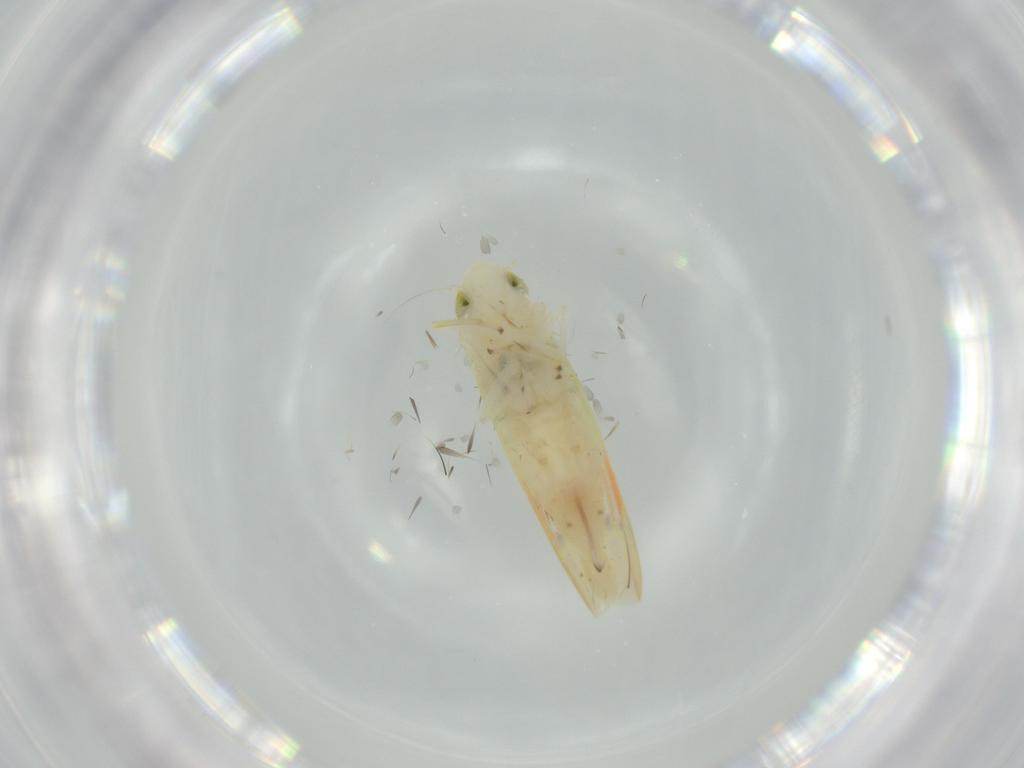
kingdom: Animalia
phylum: Arthropoda
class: Insecta
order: Hemiptera
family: Cicadellidae
